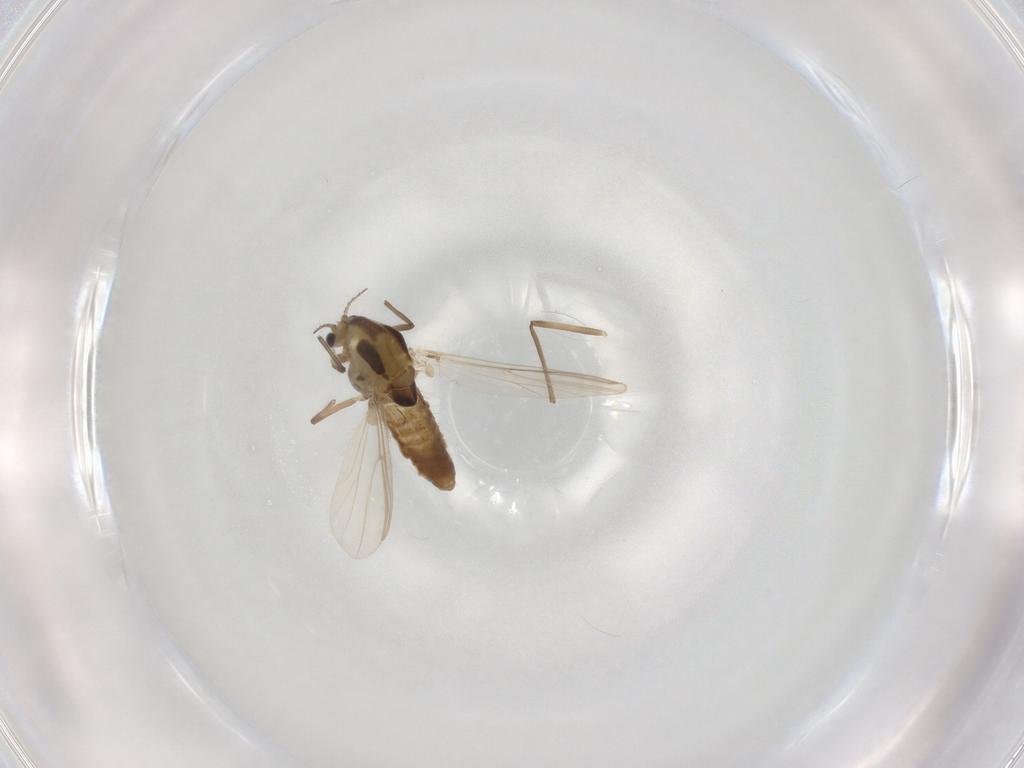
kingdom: Animalia
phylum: Arthropoda
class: Insecta
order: Diptera
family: Chironomidae
